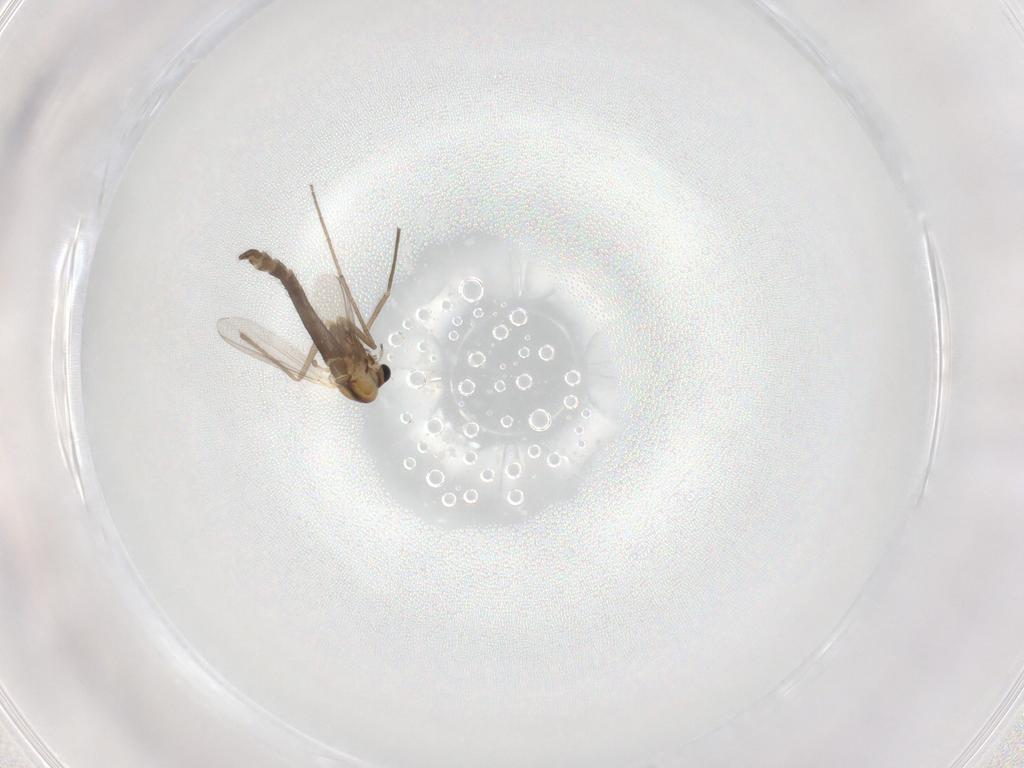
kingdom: Animalia
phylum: Arthropoda
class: Insecta
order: Diptera
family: Chironomidae
